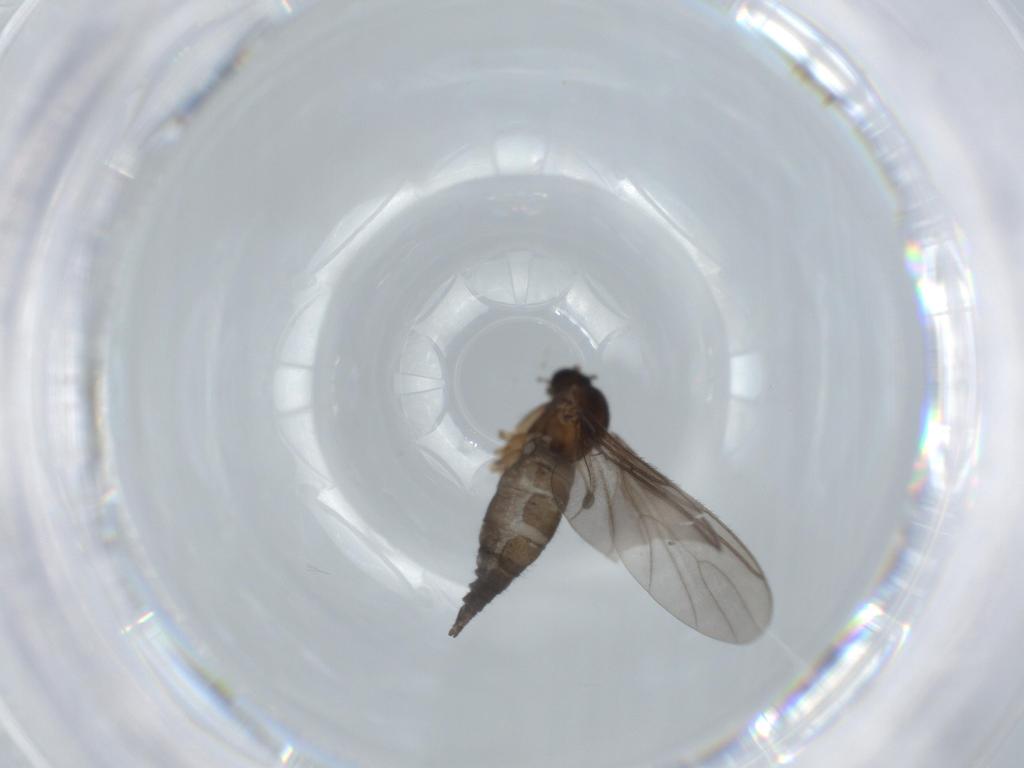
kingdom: Animalia
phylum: Arthropoda
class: Insecta
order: Diptera
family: Sciaridae
